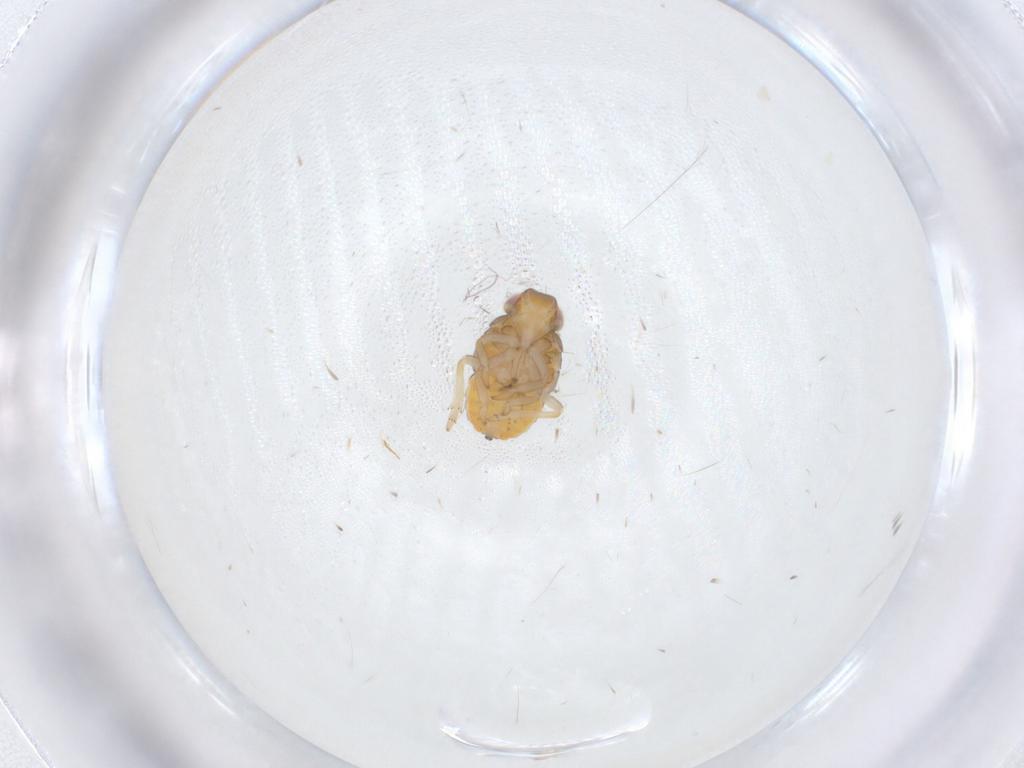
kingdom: Animalia
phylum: Arthropoda
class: Insecta
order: Hemiptera
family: Issidae
